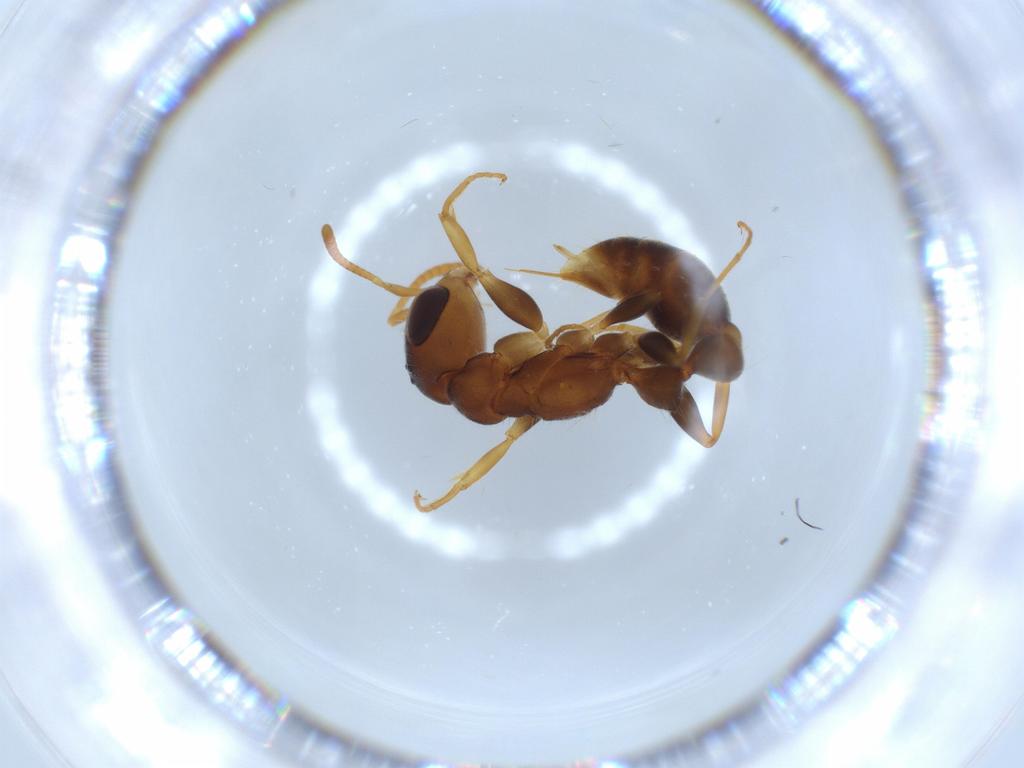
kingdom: Animalia
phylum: Arthropoda
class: Insecta
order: Hymenoptera
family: Formicidae
